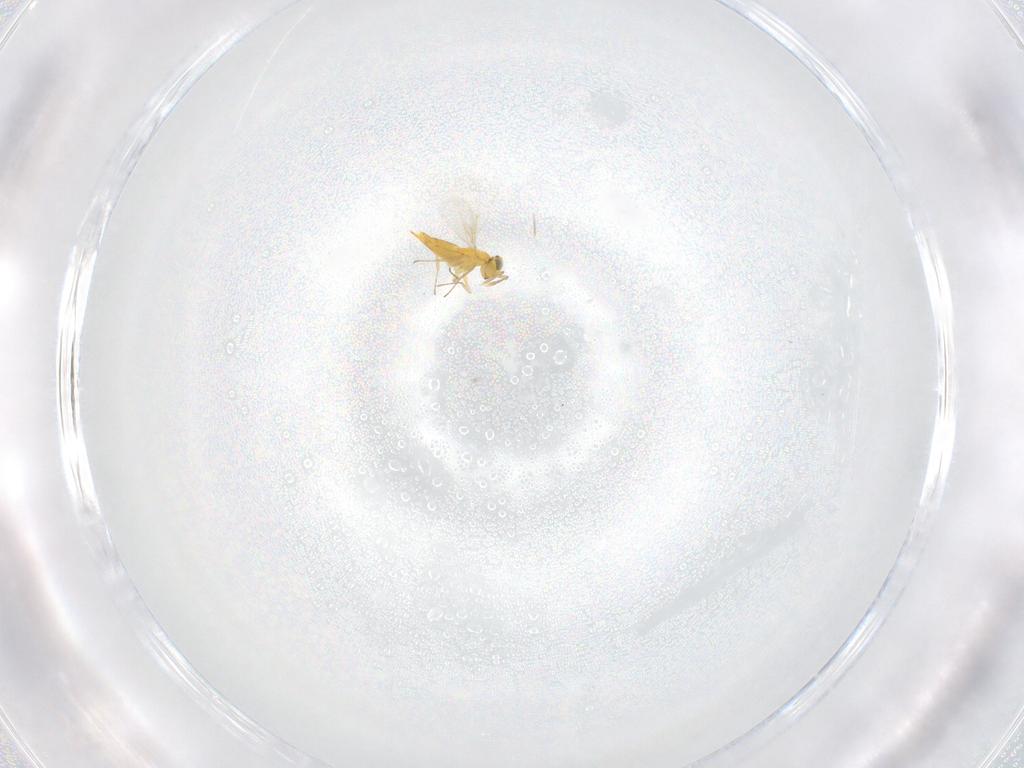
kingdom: Animalia
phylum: Arthropoda
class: Insecta
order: Hymenoptera
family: Aphelinidae
